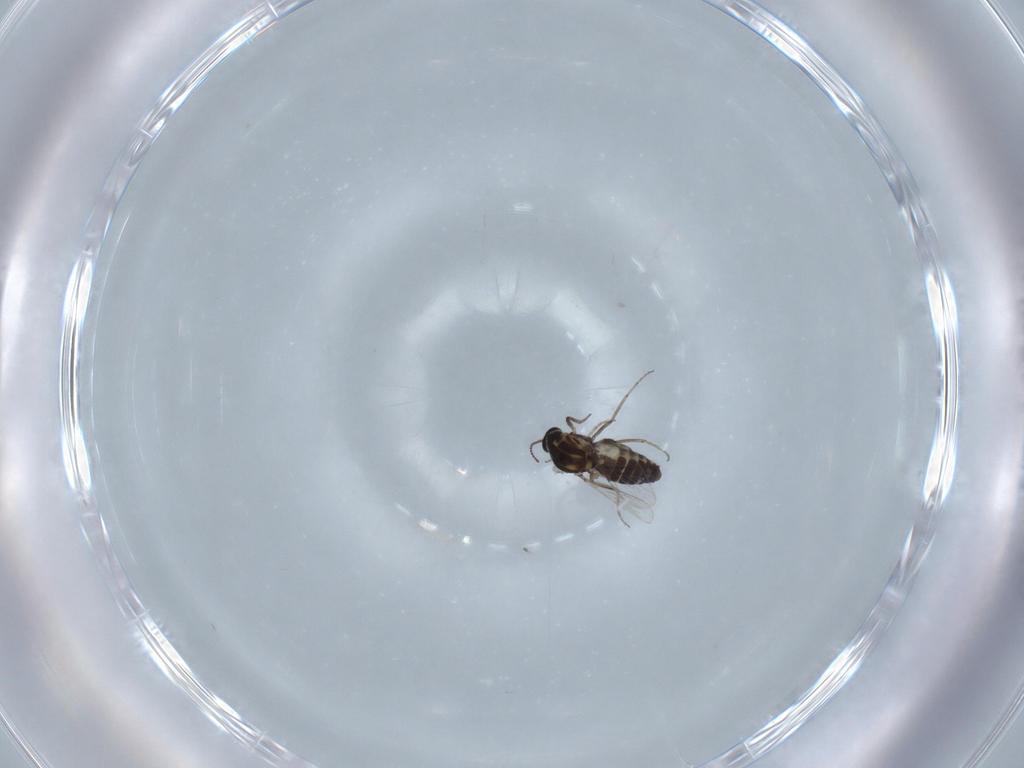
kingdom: Animalia
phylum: Arthropoda
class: Insecta
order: Diptera
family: Ceratopogonidae
